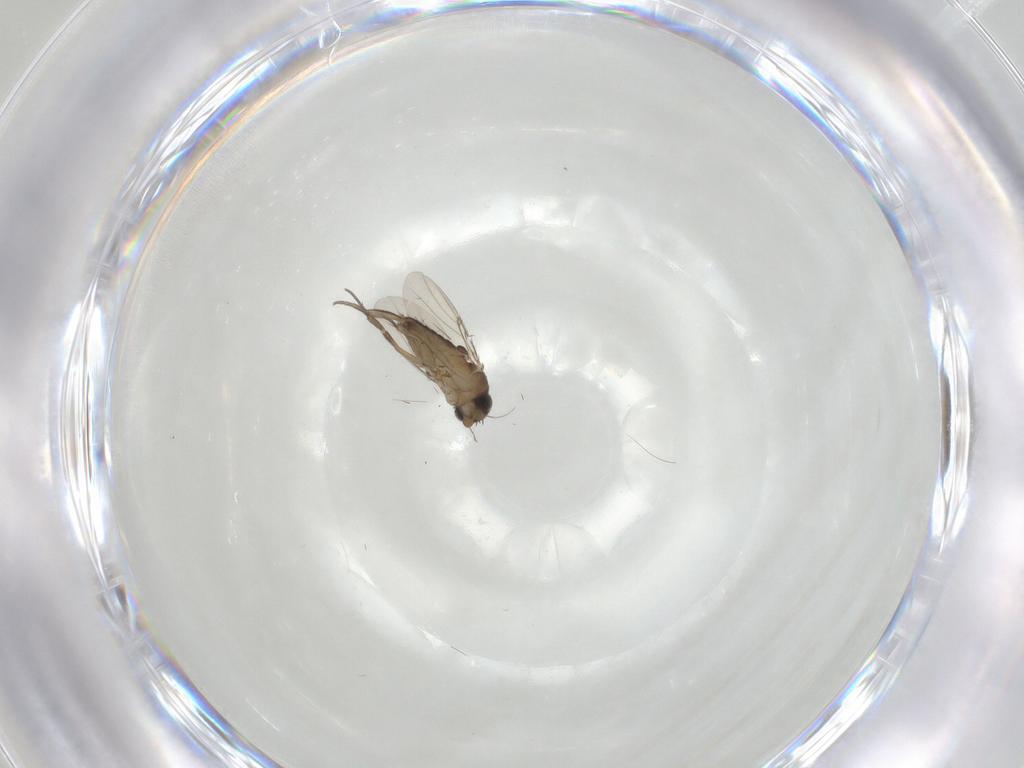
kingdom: Animalia
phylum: Arthropoda
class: Insecta
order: Diptera
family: Phoridae
